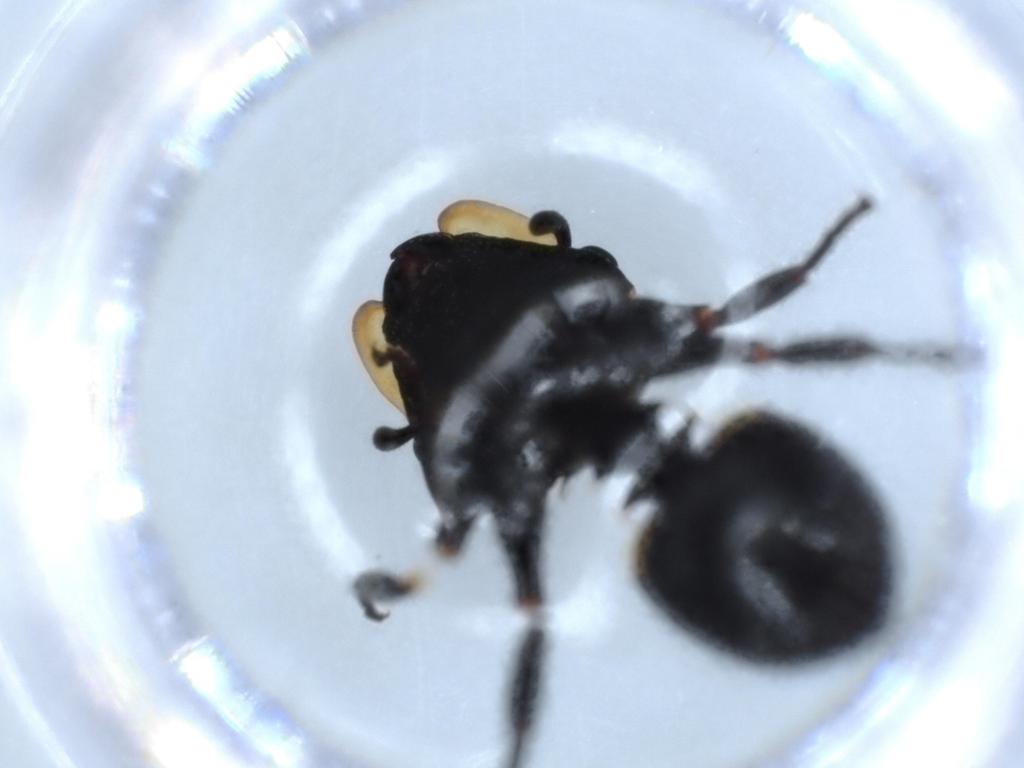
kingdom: Animalia
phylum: Arthropoda
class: Insecta
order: Hymenoptera
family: Formicidae
